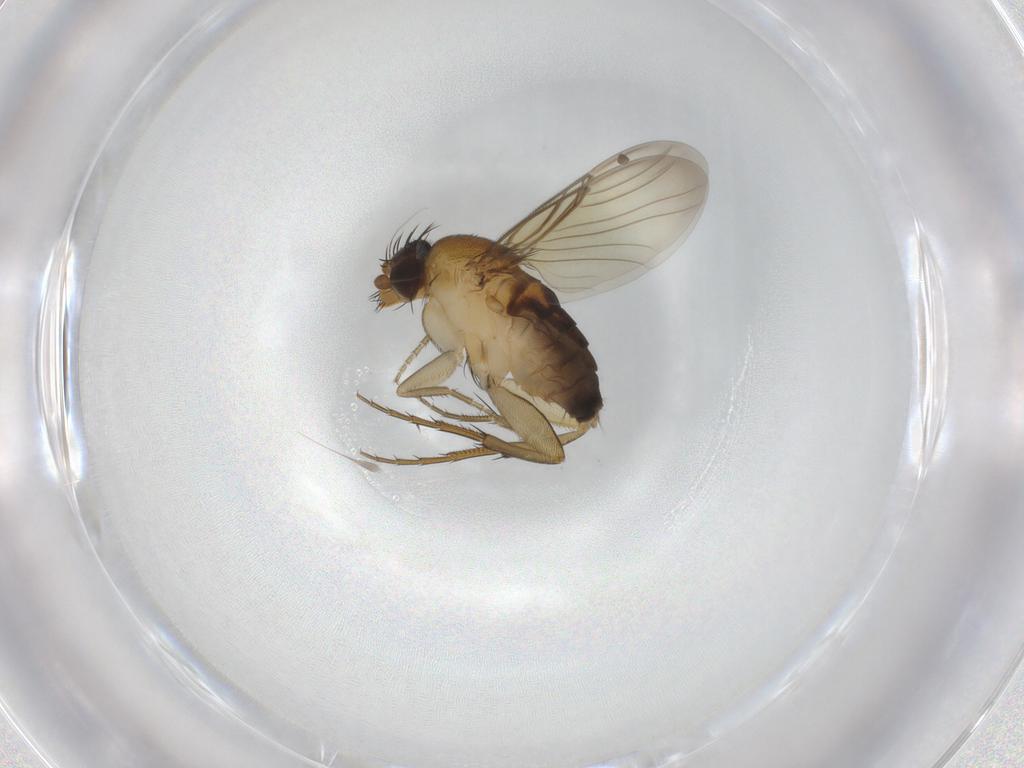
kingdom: Animalia
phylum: Arthropoda
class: Insecta
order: Diptera
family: Phoridae
